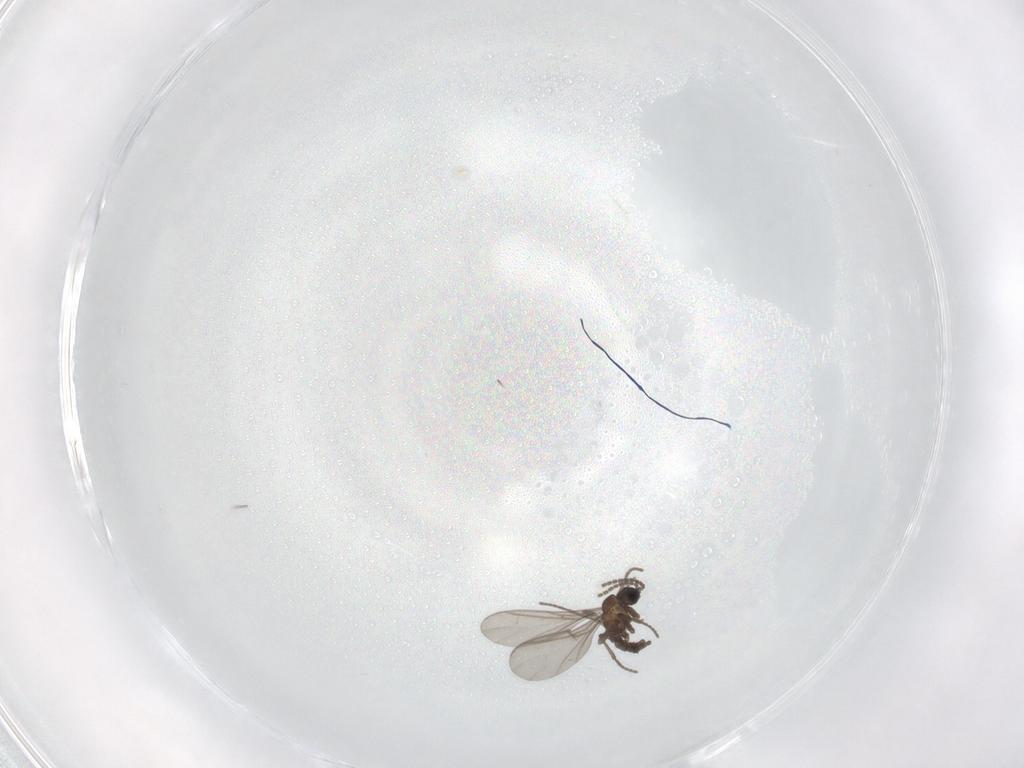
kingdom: Animalia
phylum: Arthropoda
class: Insecta
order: Diptera
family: Sciaridae
